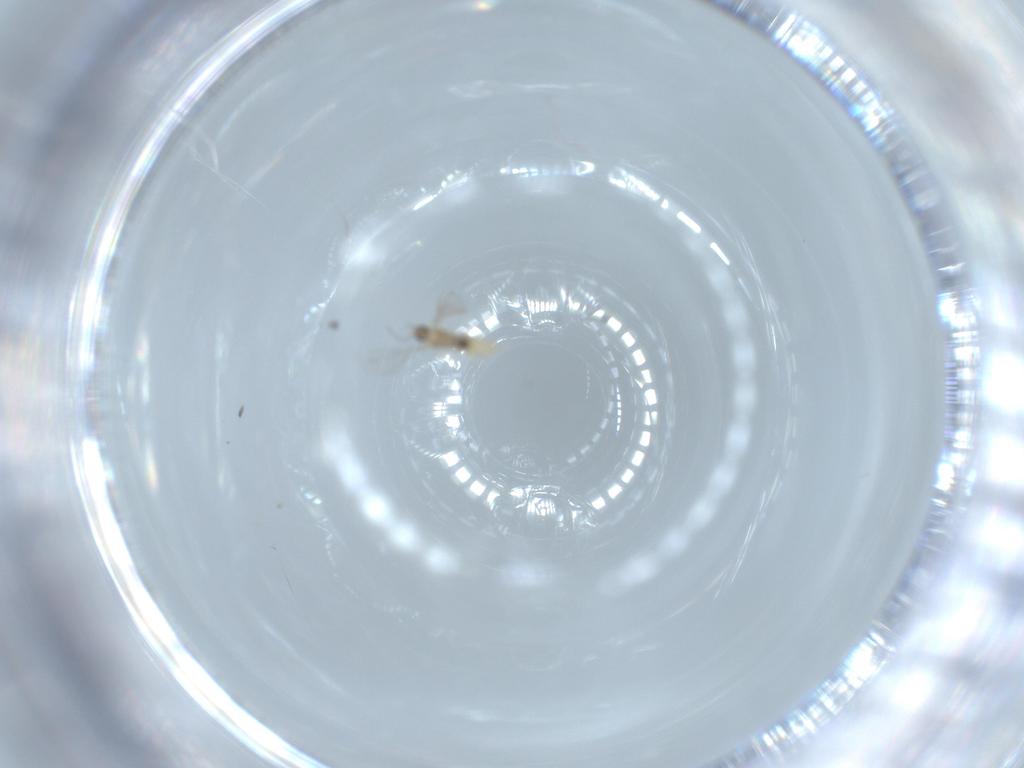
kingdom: Animalia
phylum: Arthropoda
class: Insecta
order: Diptera
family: Cecidomyiidae
